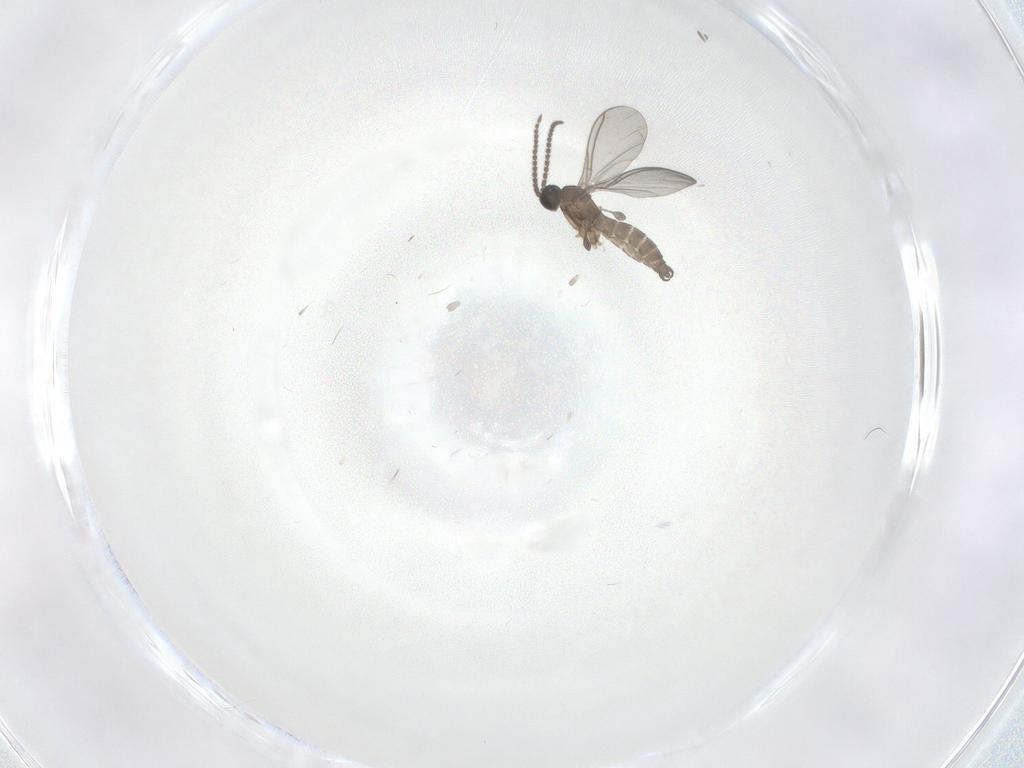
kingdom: Animalia
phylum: Arthropoda
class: Insecta
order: Diptera
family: Sciaridae
